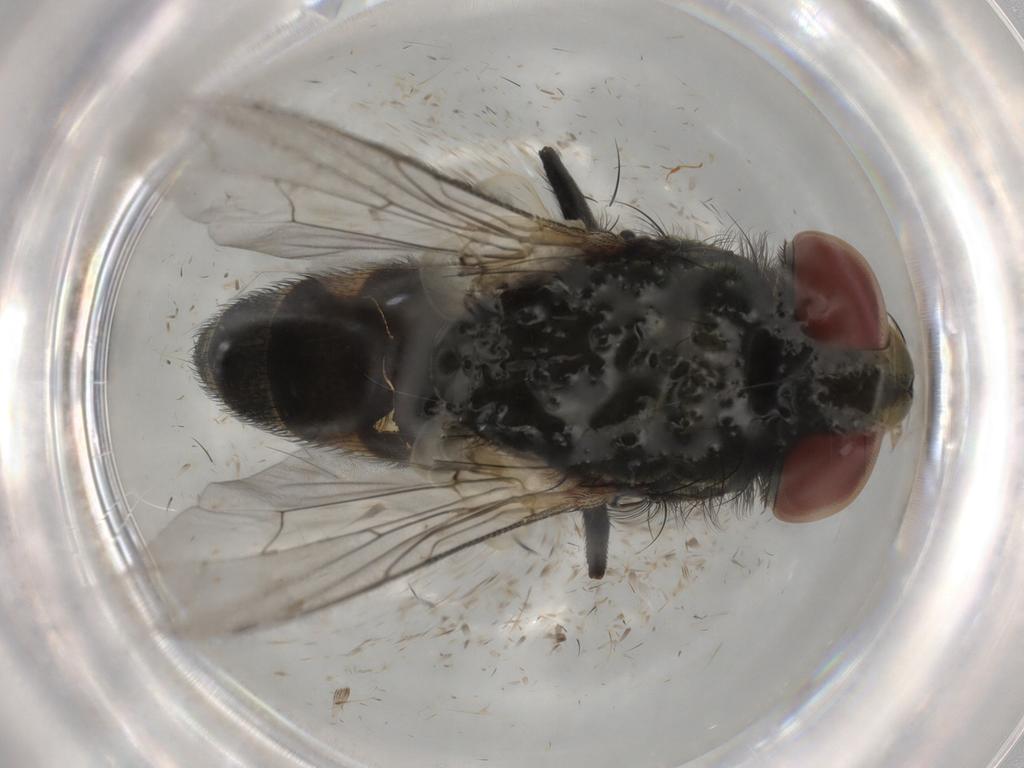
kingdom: Animalia
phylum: Arthropoda
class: Insecta
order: Diptera
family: Sarcophagidae
